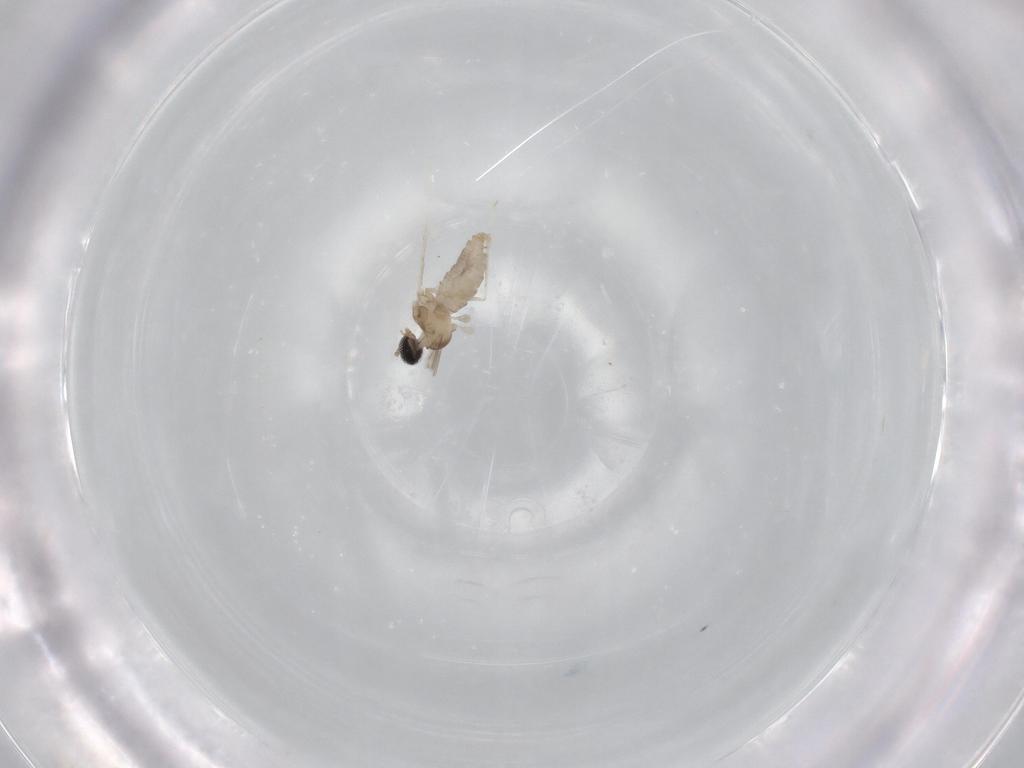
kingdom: Animalia
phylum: Arthropoda
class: Insecta
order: Diptera
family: Cecidomyiidae
